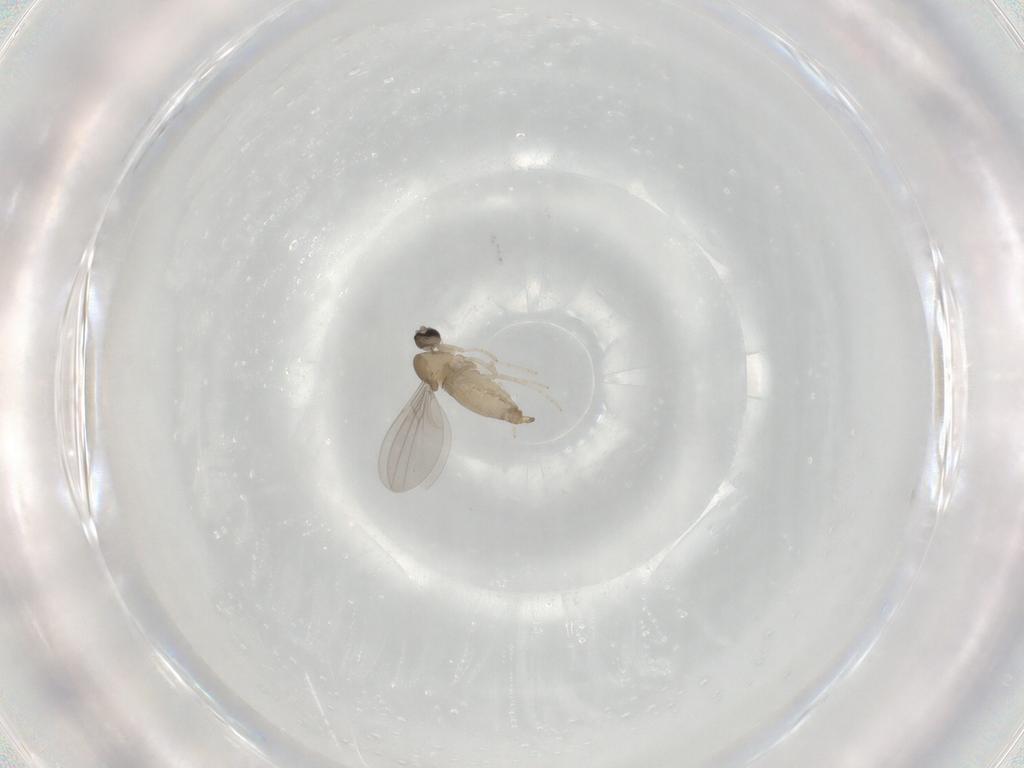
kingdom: Animalia
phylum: Arthropoda
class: Insecta
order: Diptera
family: Cecidomyiidae
